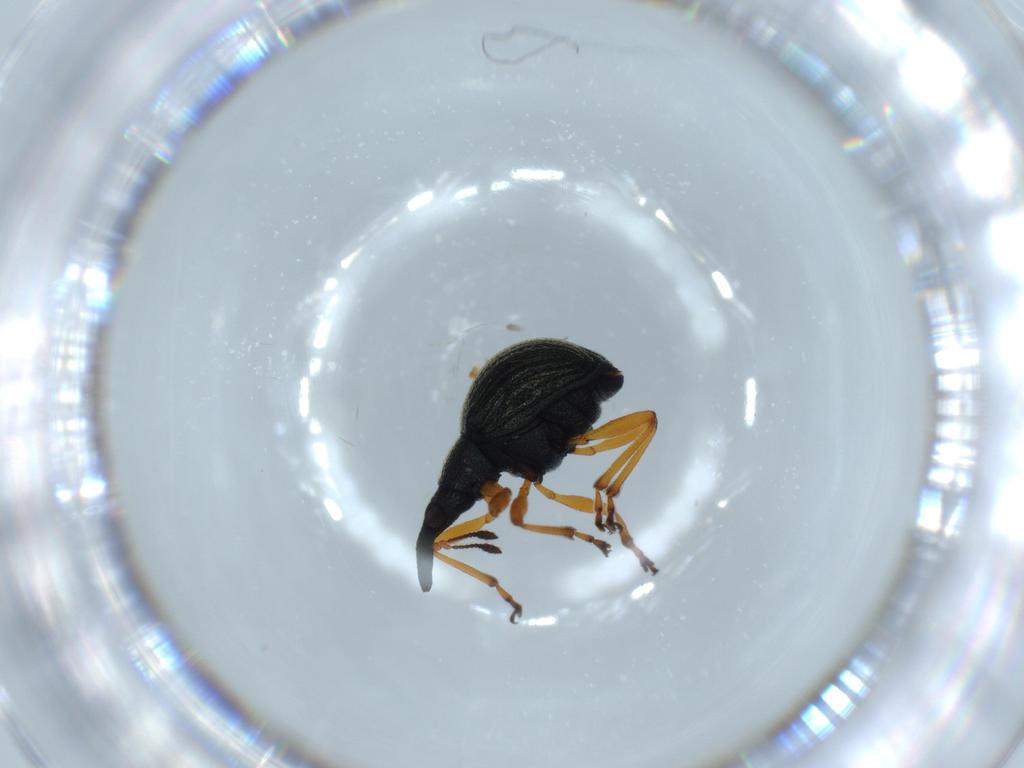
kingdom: Animalia
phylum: Arthropoda
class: Insecta
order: Coleoptera
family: Brentidae
